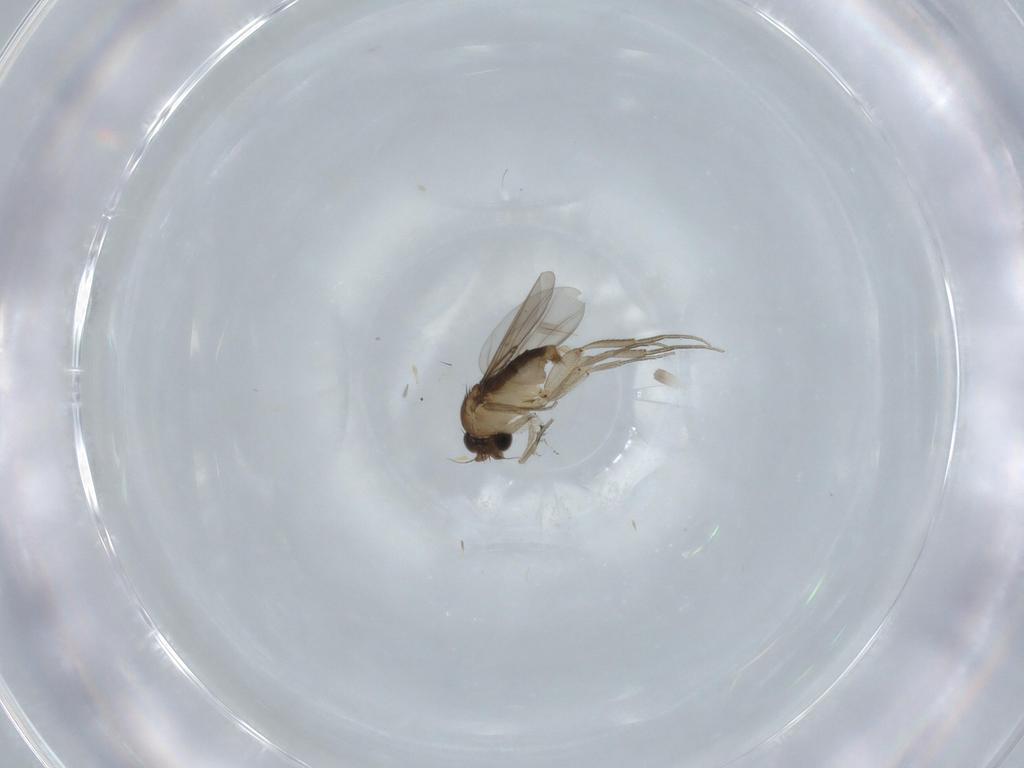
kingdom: Animalia
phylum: Arthropoda
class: Insecta
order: Diptera
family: Phoridae
